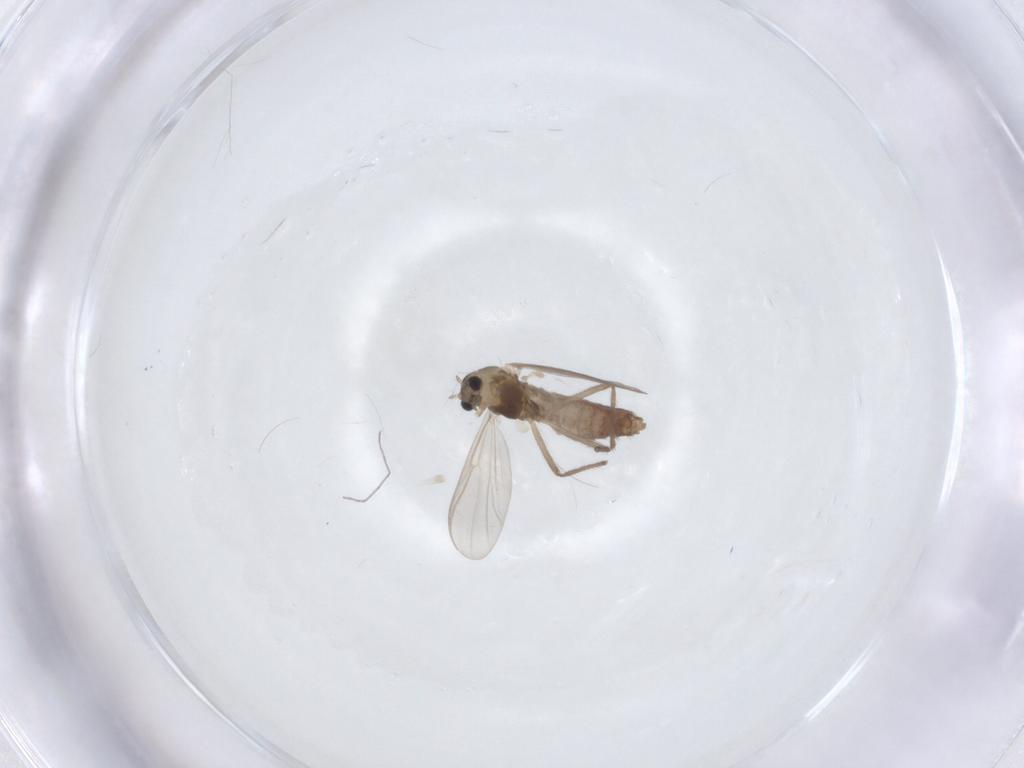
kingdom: Animalia
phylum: Arthropoda
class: Insecta
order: Diptera
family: Chironomidae
